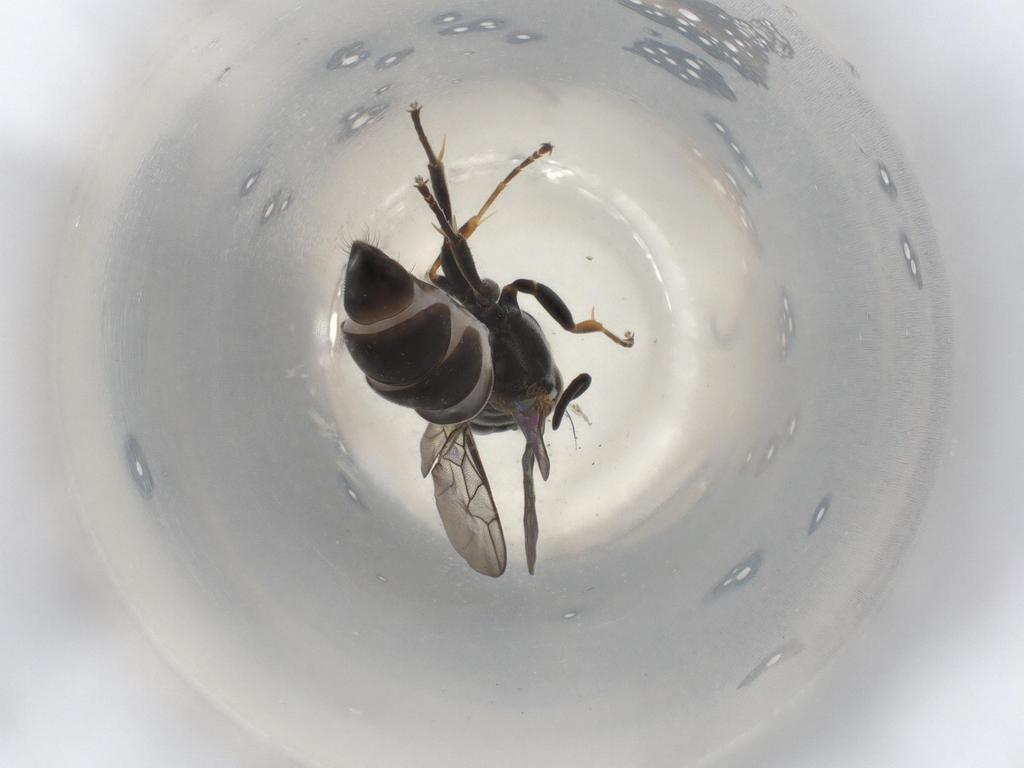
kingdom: Animalia
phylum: Arthropoda
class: Insecta
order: Hymenoptera
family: Crabronidae
